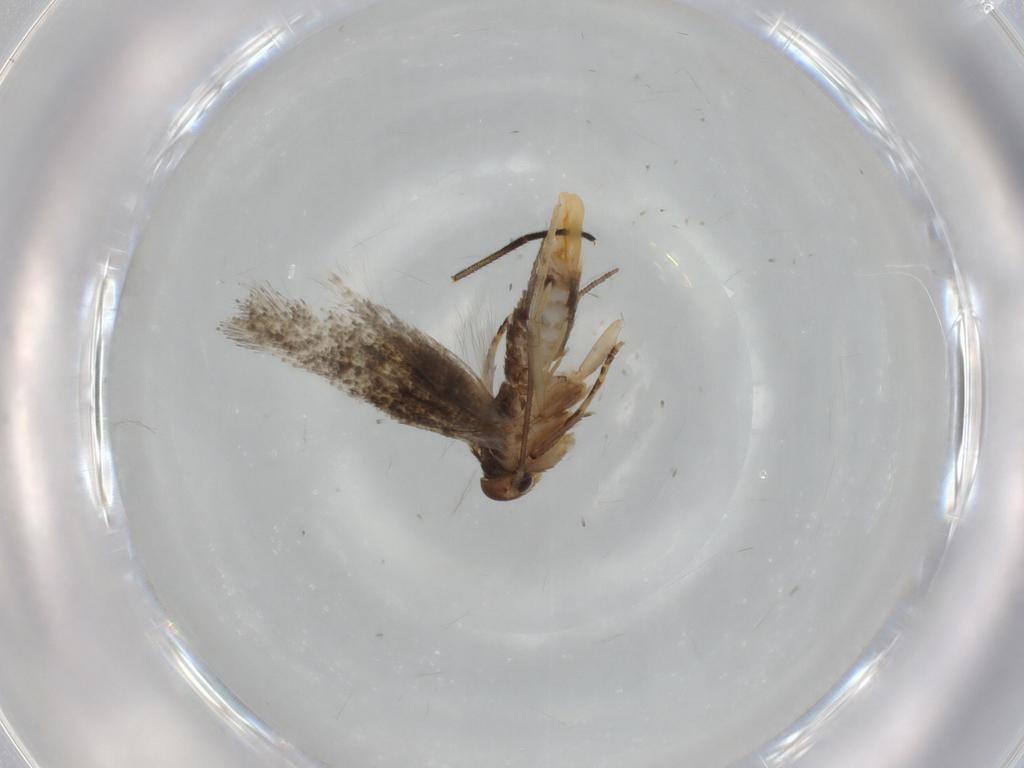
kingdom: Animalia
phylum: Arthropoda
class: Insecta
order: Lepidoptera
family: Elachistidae
